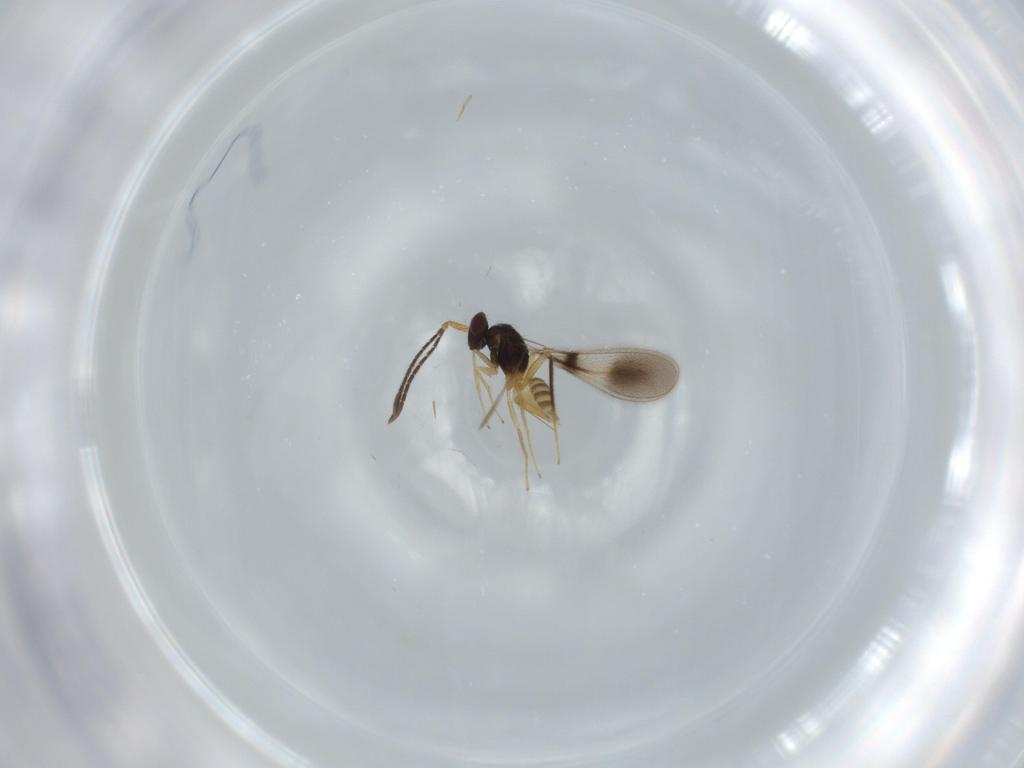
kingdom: Animalia
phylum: Arthropoda
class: Insecta
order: Hymenoptera
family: Mymaridae
